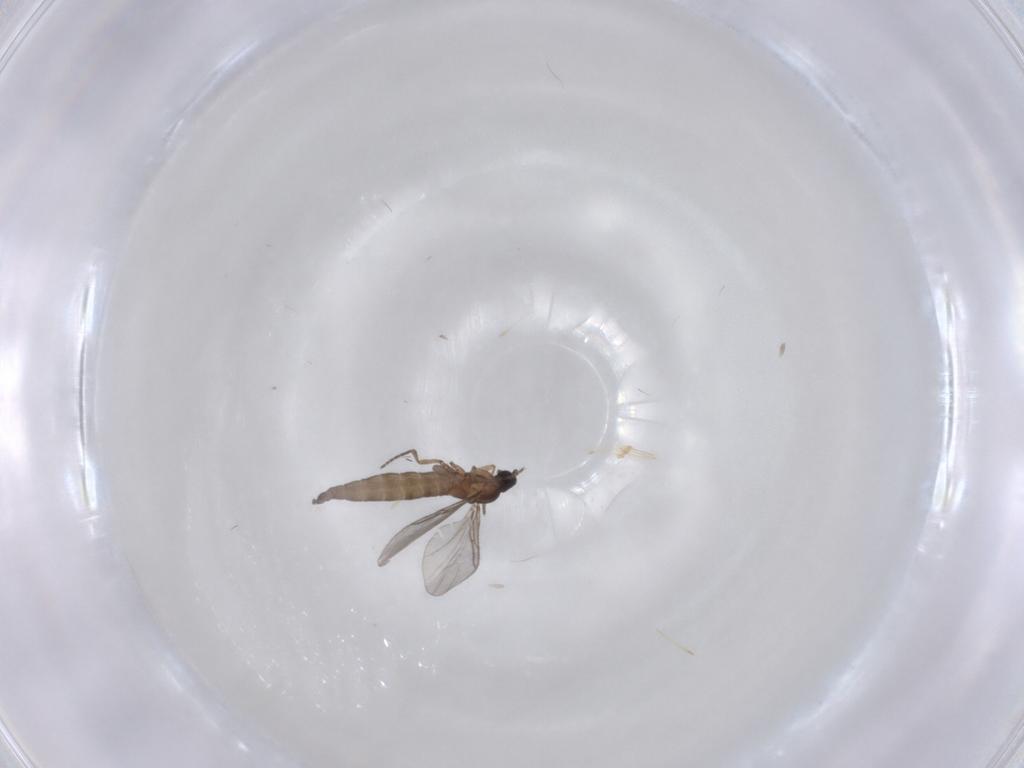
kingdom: Animalia
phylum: Arthropoda
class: Insecta
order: Diptera
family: Sciaridae
